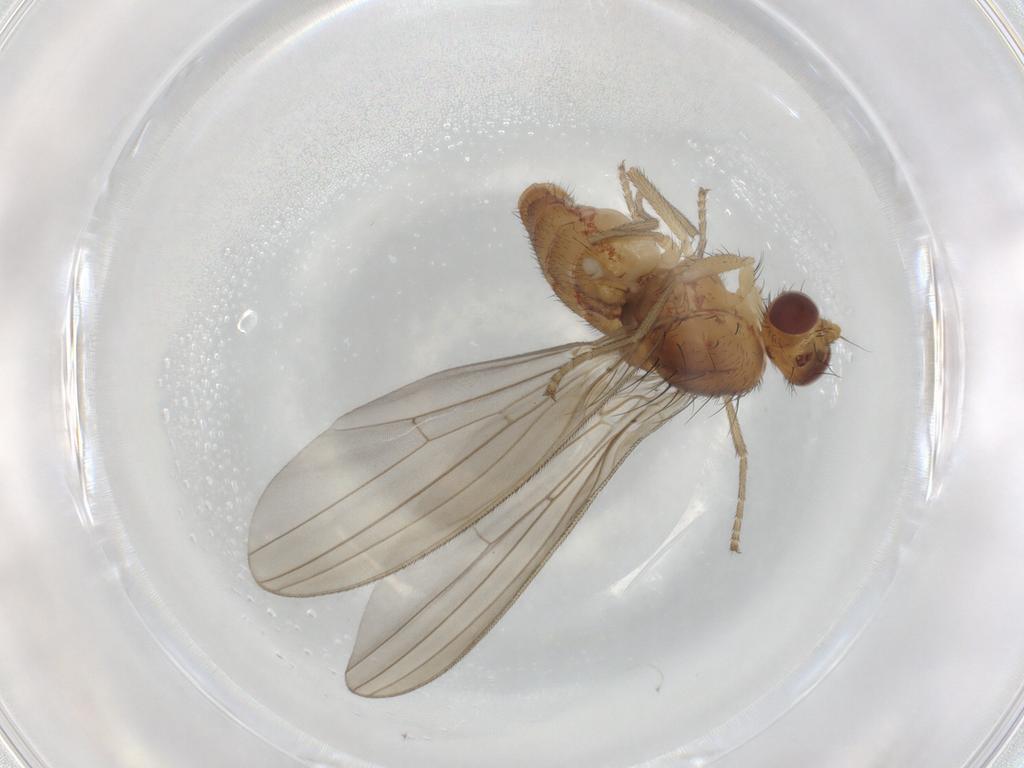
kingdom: Animalia
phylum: Arthropoda
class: Insecta
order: Diptera
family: Natalimyzidae
